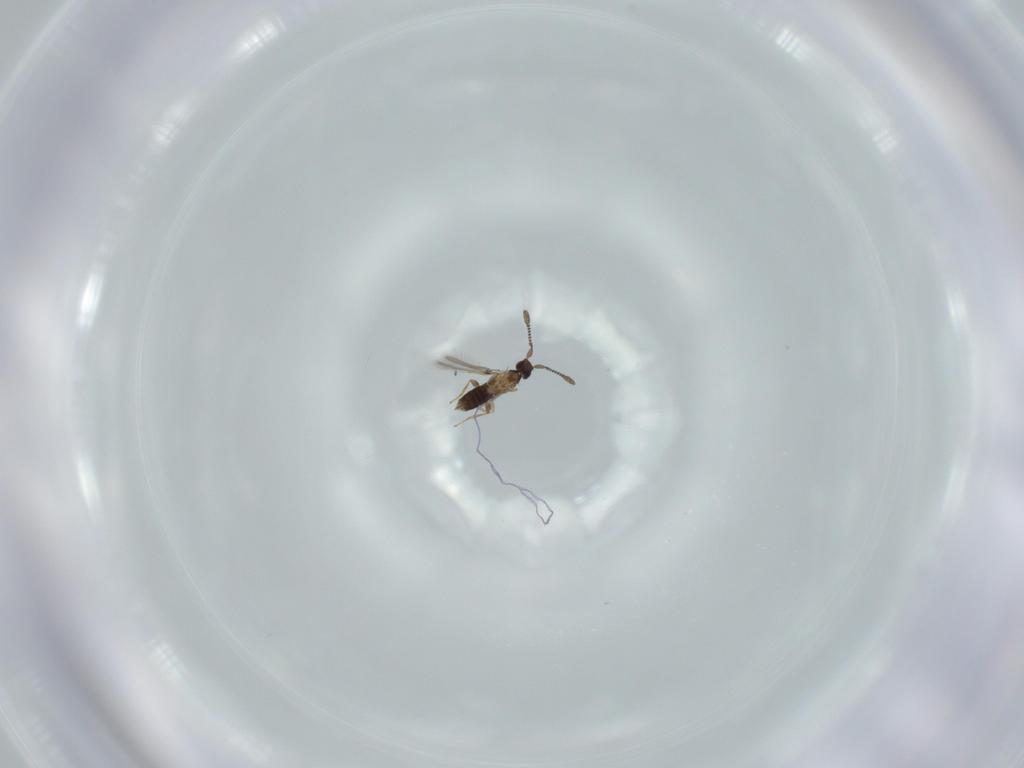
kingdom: Animalia
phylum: Arthropoda
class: Insecta
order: Hymenoptera
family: Mymaridae
